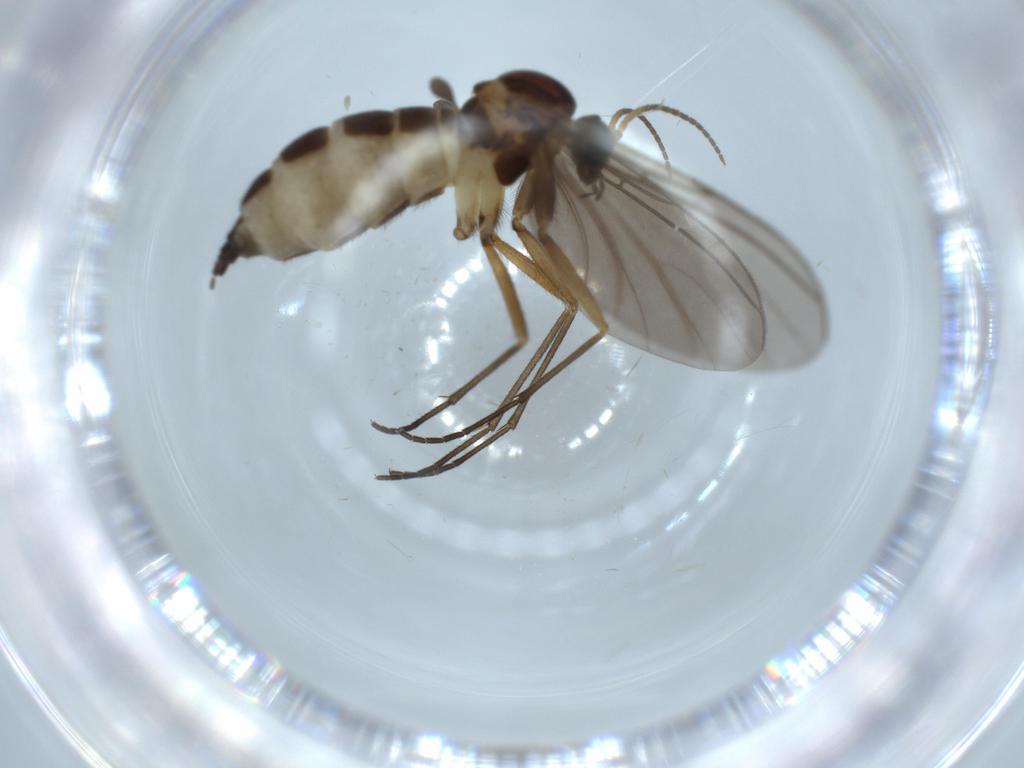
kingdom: Animalia
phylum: Arthropoda
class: Insecta
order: Diptera
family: Sciaridae
